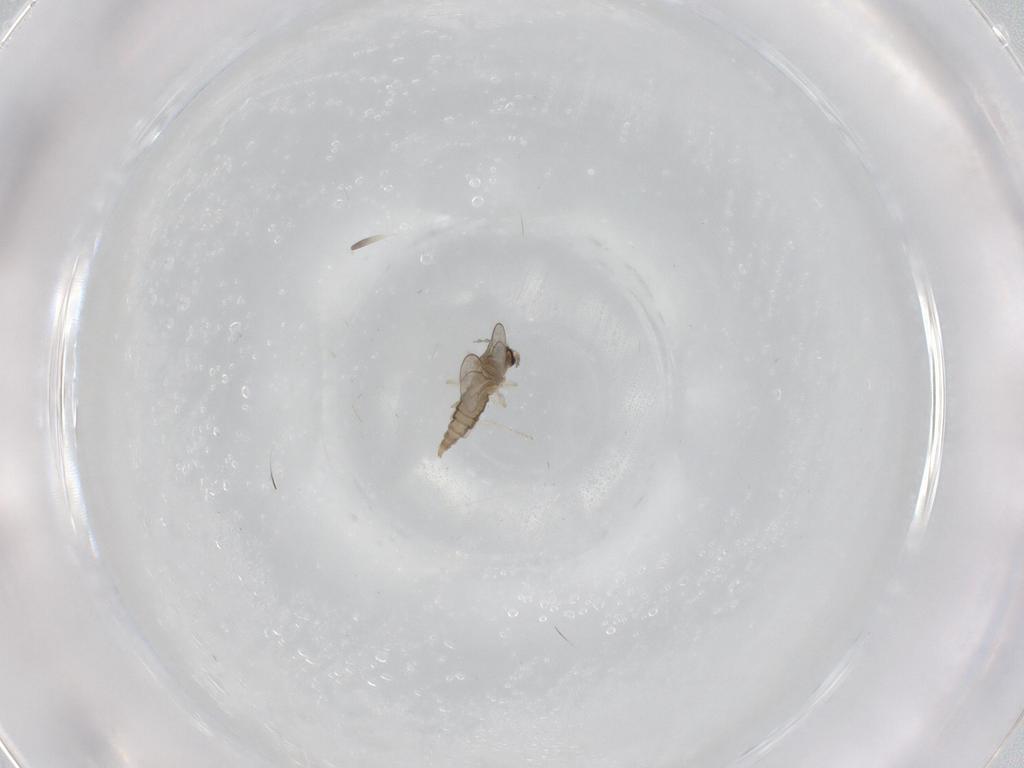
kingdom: Animalia
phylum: Arthropoda
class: Insecta
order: Diptera
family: Cecidomyiidae
